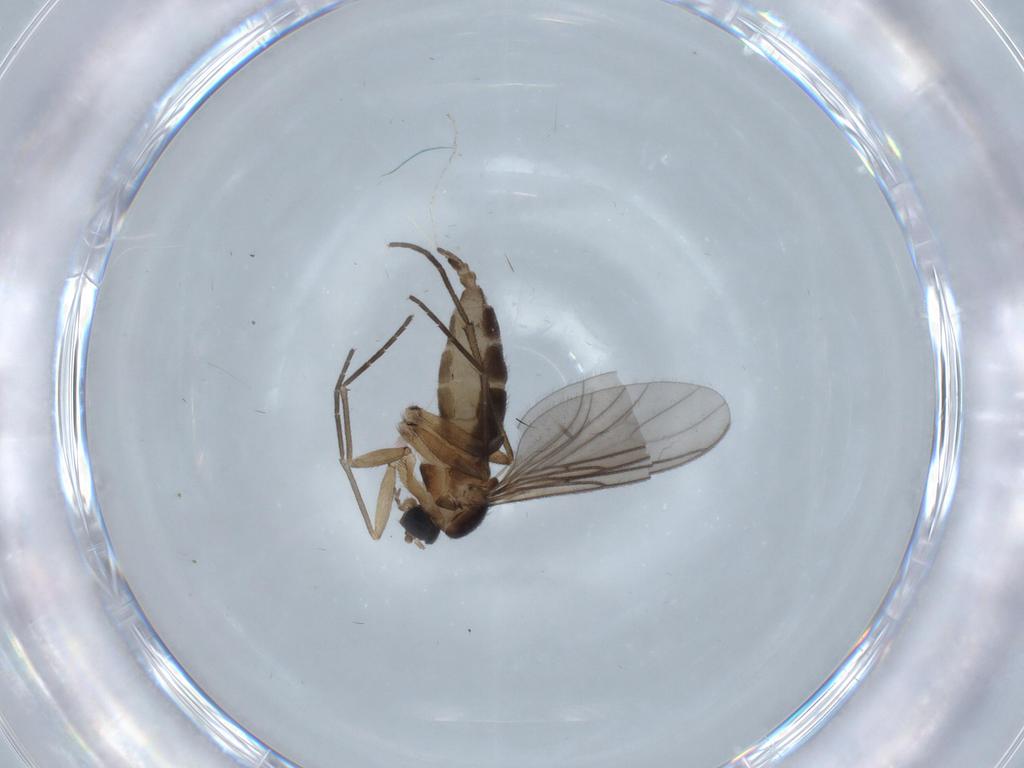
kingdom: Animalia
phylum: Arthropoda
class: Insecta
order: Diptera
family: Sciaridae
